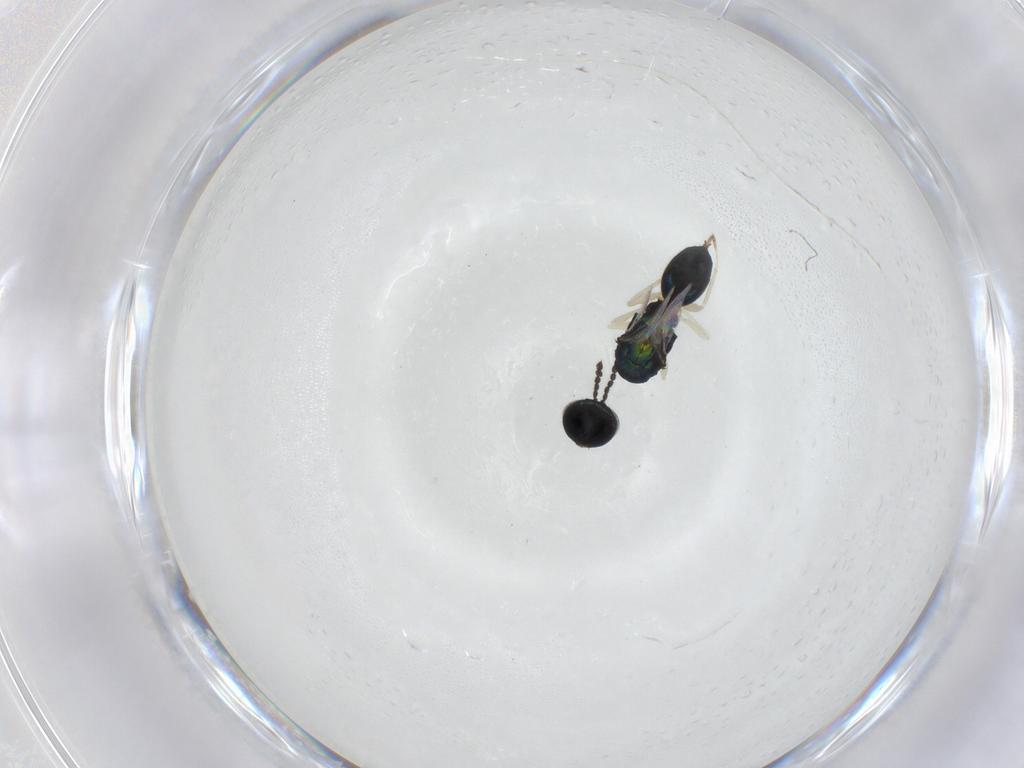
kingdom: Animalia
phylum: Arthropoda
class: Insecta
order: Hymenoptera
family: Eulophidae
